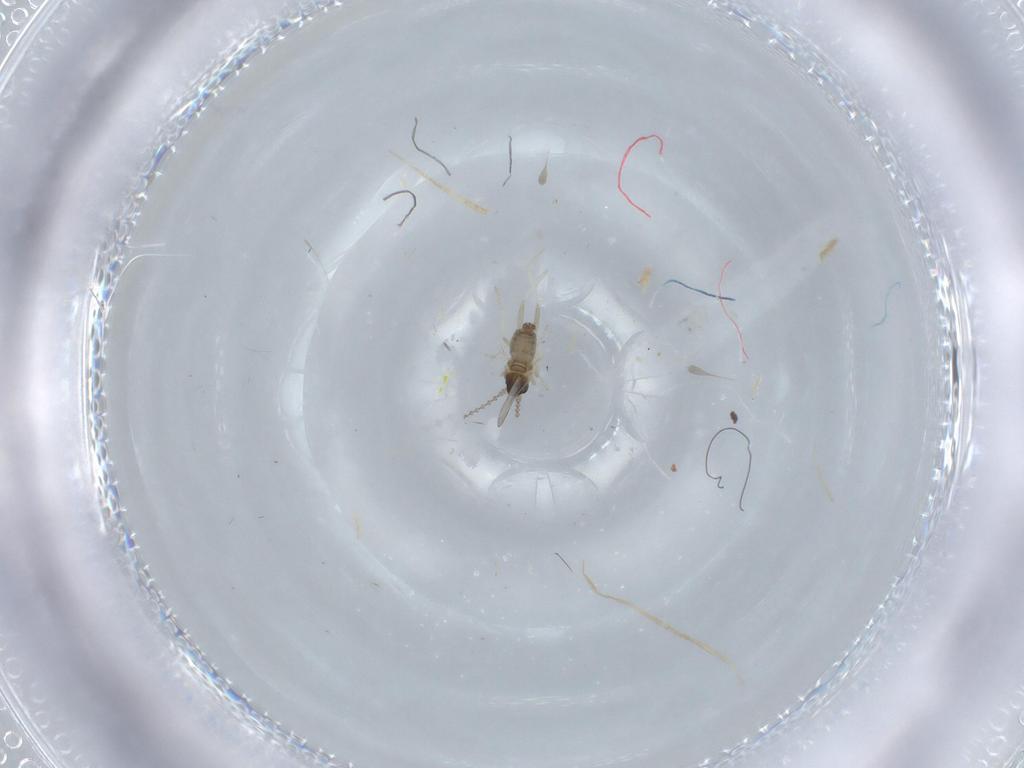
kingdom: Animalia
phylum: Arthropoda
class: Insecta
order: Diptera
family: Cecidomyiidae
